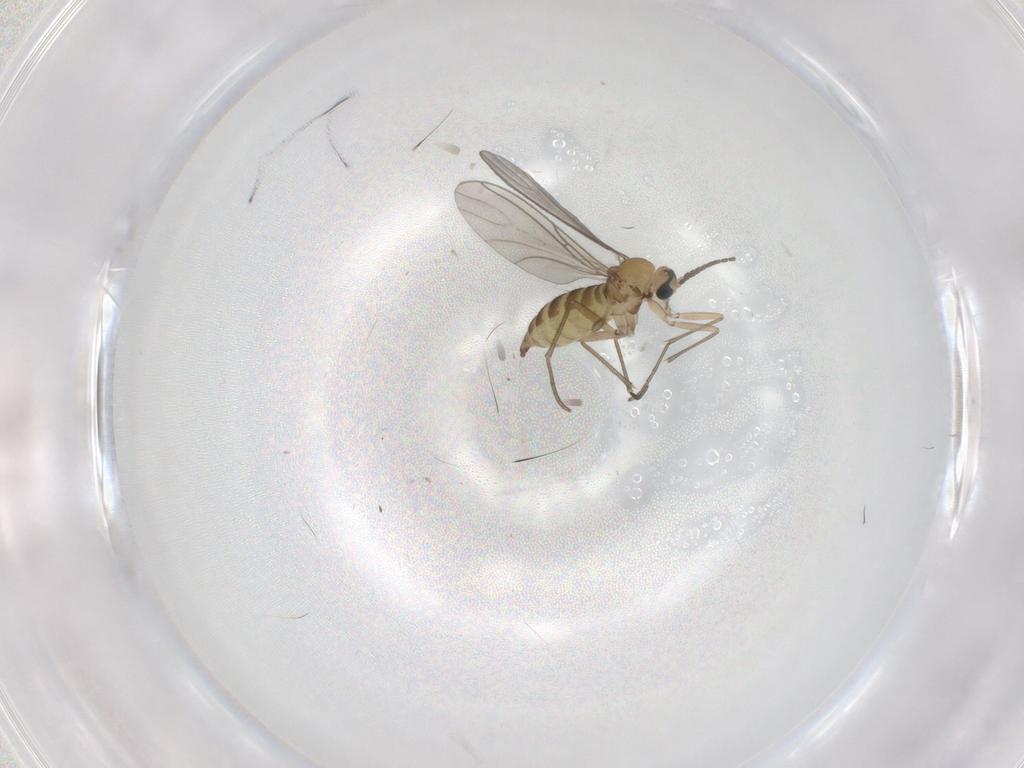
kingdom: Animalia
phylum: Arthropoda
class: Insecta
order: Diptera
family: Sciaridae
